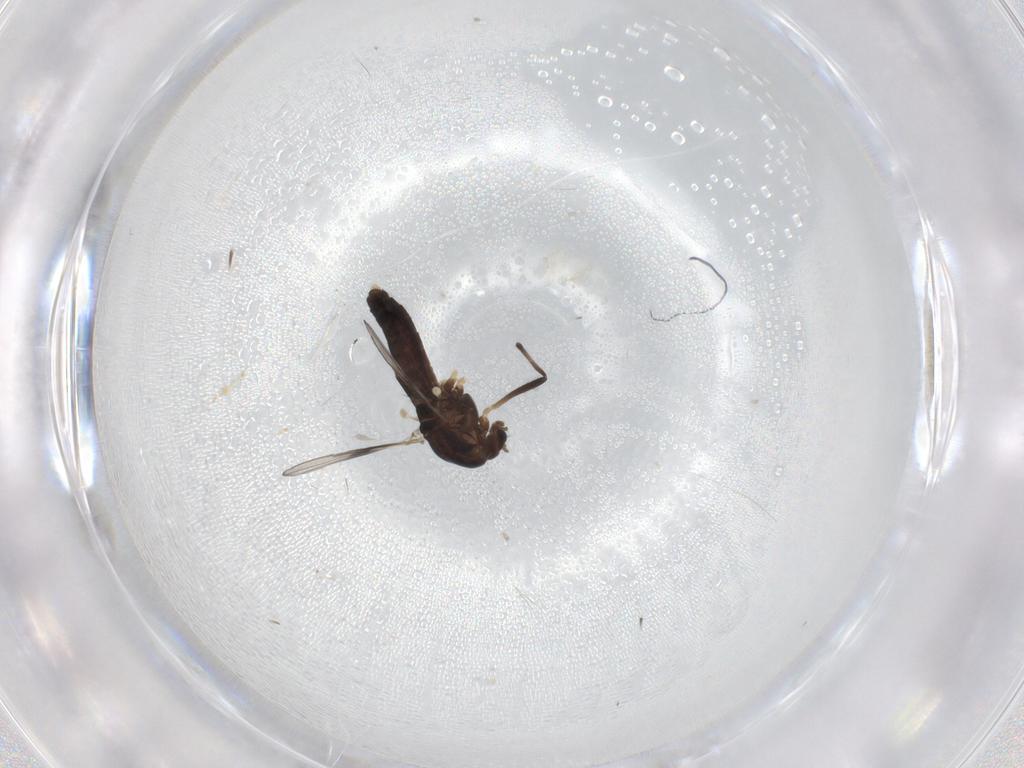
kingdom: Animalia
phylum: Arthropoda
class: Insecta
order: Diptera
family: Chironomidae
